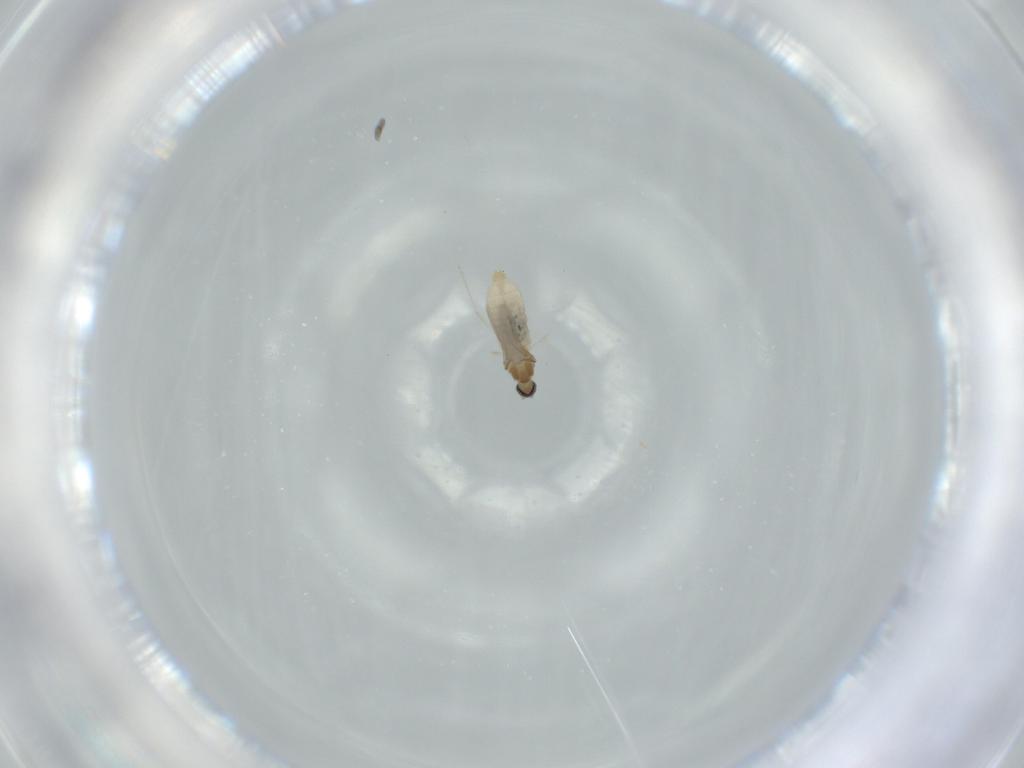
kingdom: Animalia
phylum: Arthropoda
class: Insecta
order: Diptera
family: Cecidomyiidae
